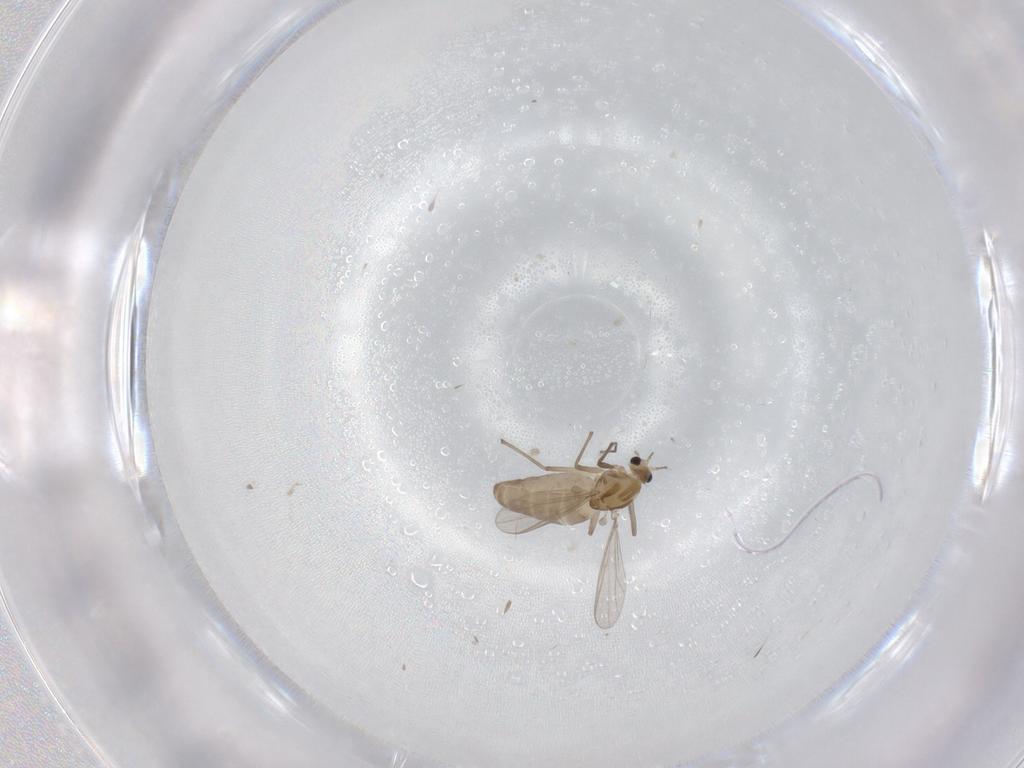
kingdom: Animalia
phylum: Arthropoda
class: Insecta
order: Diptera
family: Chironomidae
